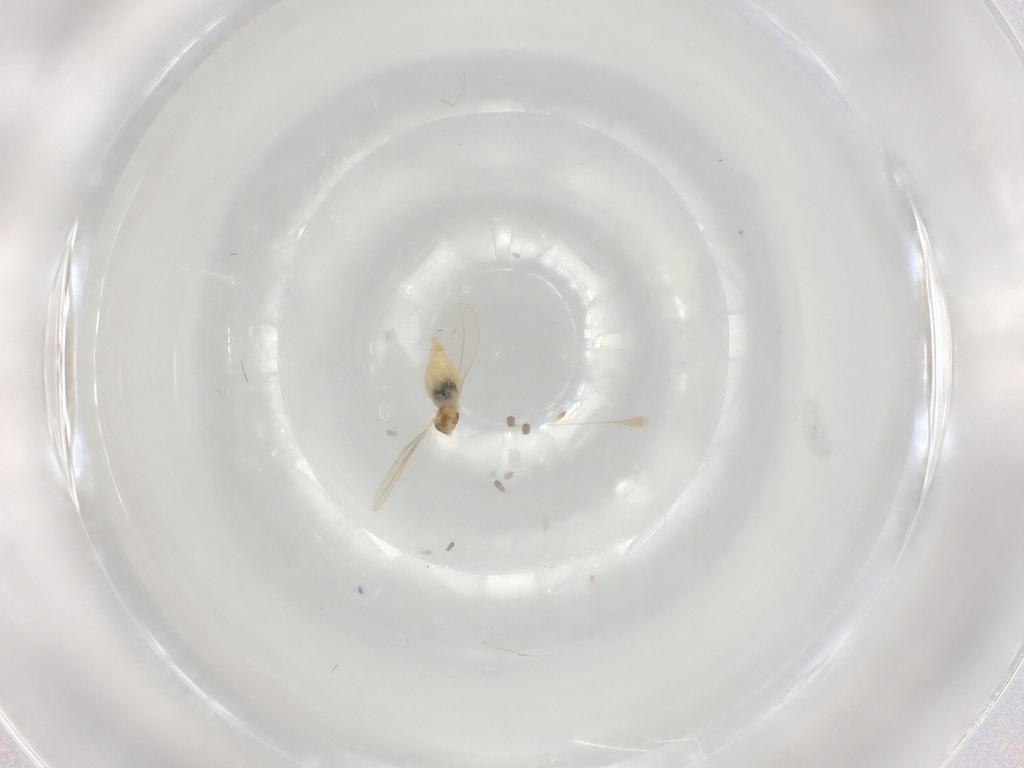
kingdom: Animalia
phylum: Arthropoda
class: Insecta
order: Diptera
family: Cecidomyiidae
